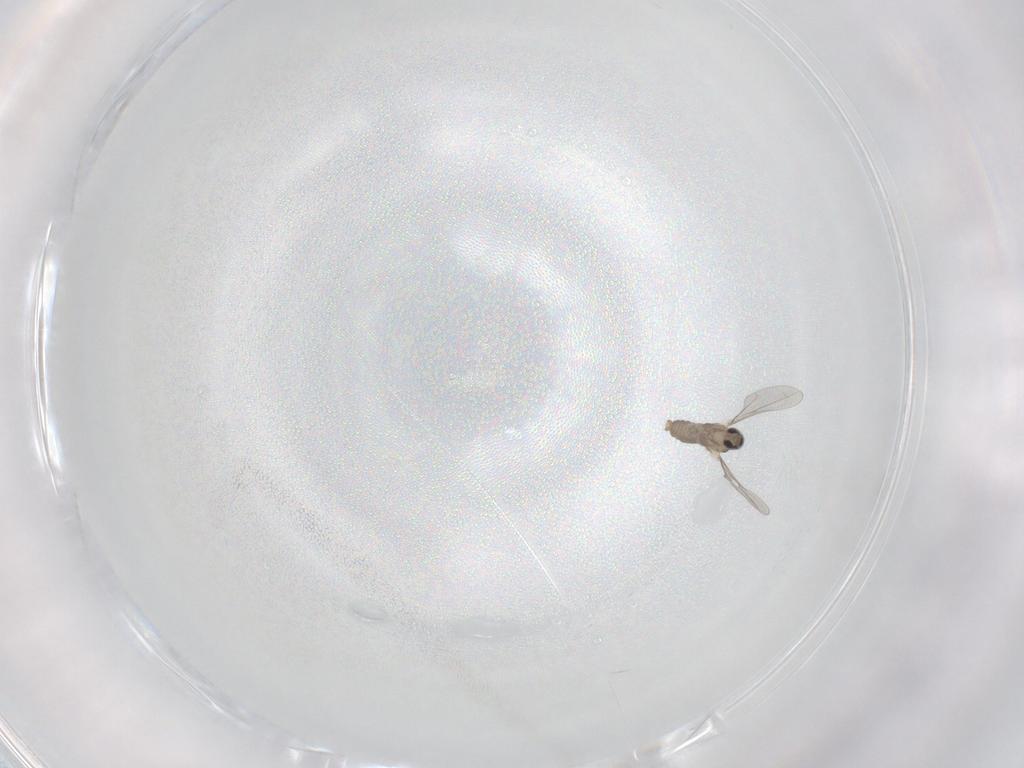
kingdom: Animalia
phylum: Arthropoda
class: Insecta
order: Diptera
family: Cecidomyiidae
